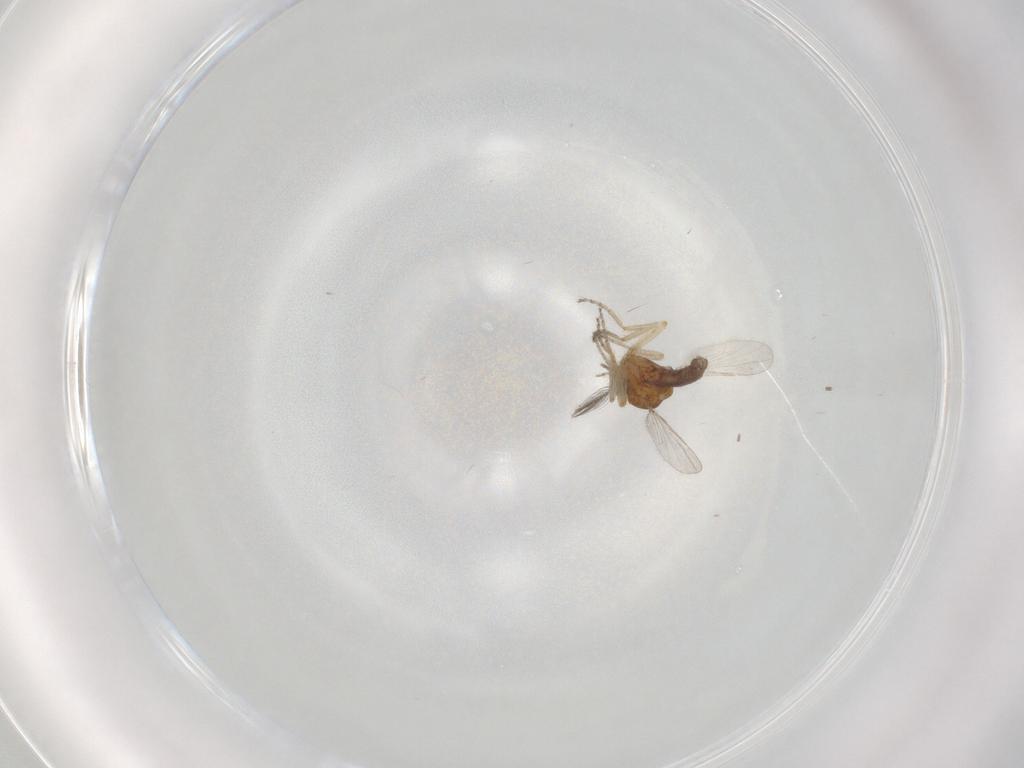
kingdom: Animalia
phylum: Arthropoda
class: Insecta
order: Diptera
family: Ceratopogonidae
